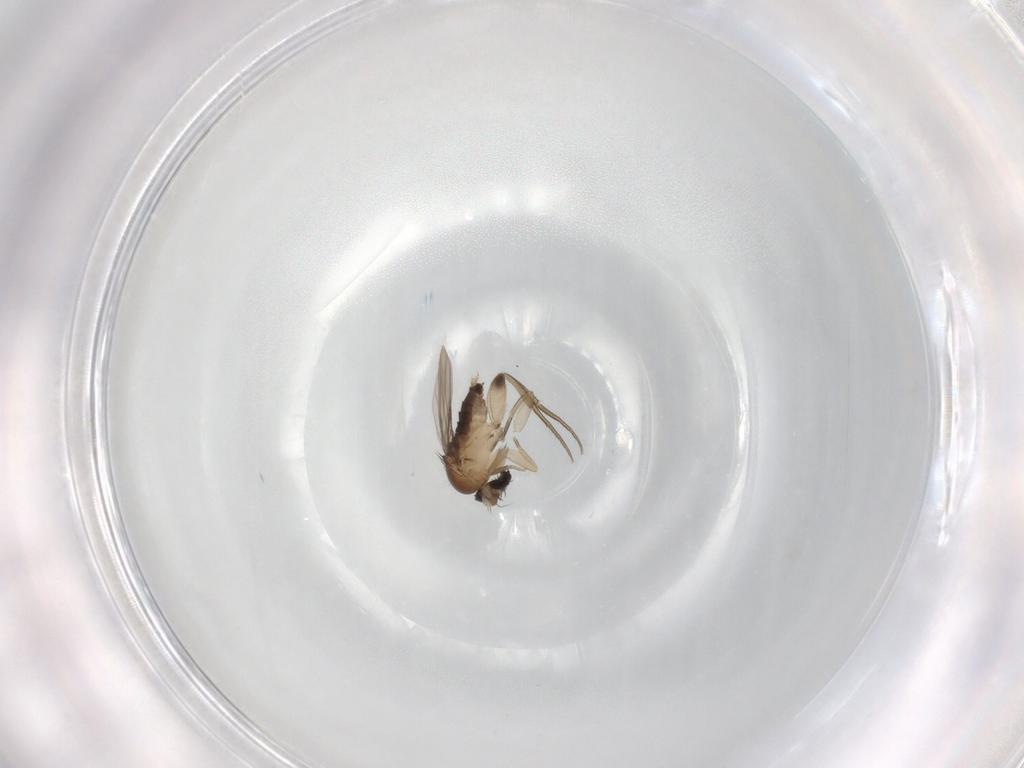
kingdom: Animalia
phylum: Arthropoda
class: Insecta
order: Diptera
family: Phoridae
